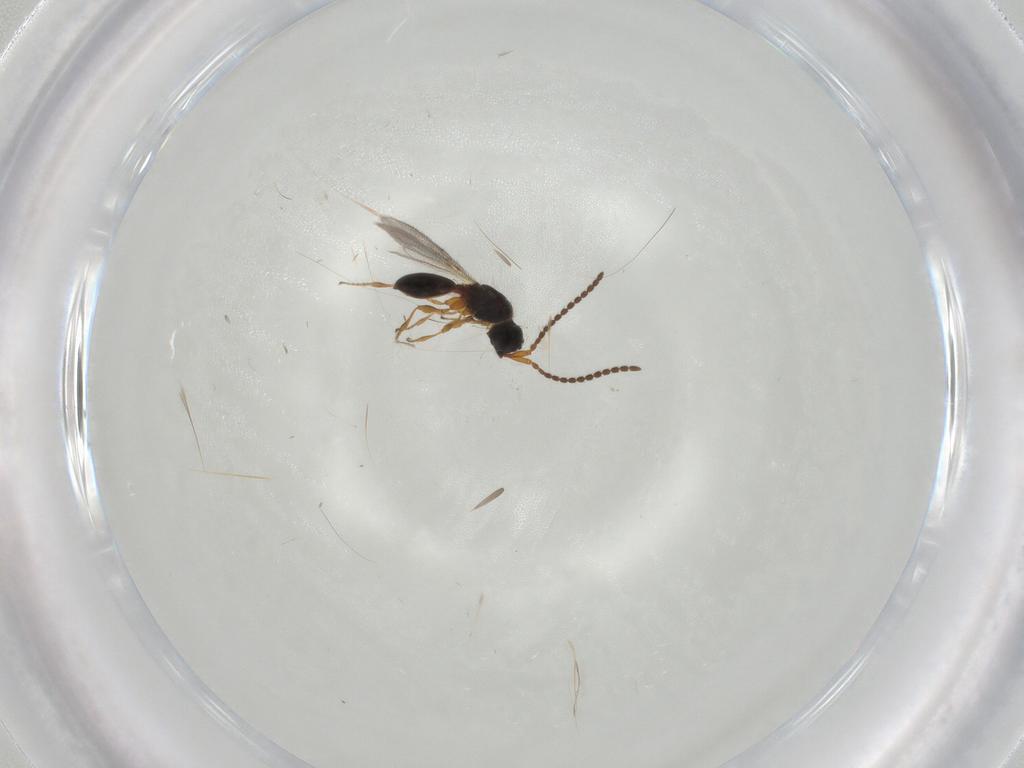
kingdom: Animalia
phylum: Arthropoda
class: Insecta
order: Hymenoptera
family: Diapriidae
